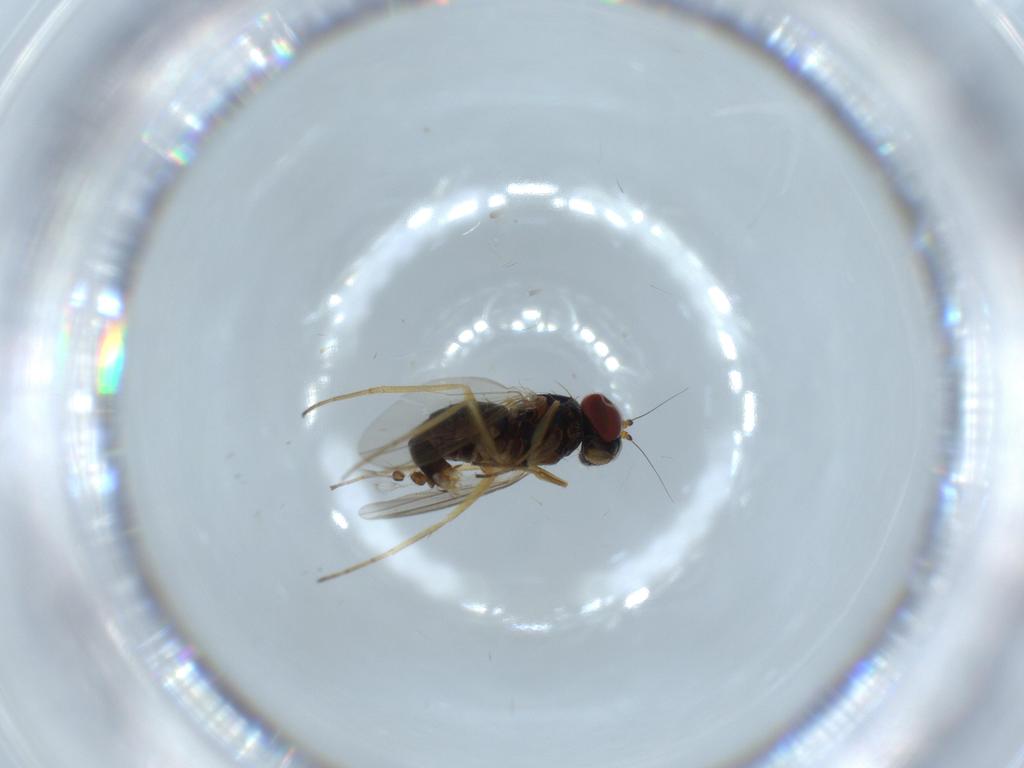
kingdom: Animalia
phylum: Arthropoda
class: Insecta
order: Diptera
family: Dolichopodidae
